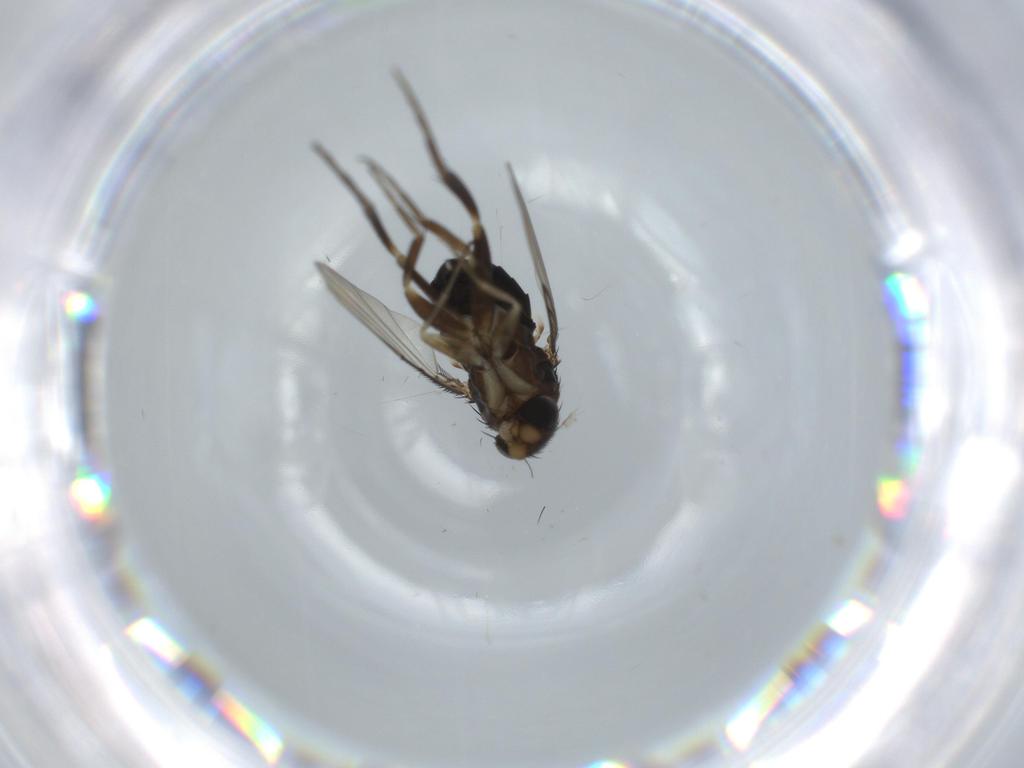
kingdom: Animalia
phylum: Arthropoda
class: Insecta
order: Diptera
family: Phoridae
